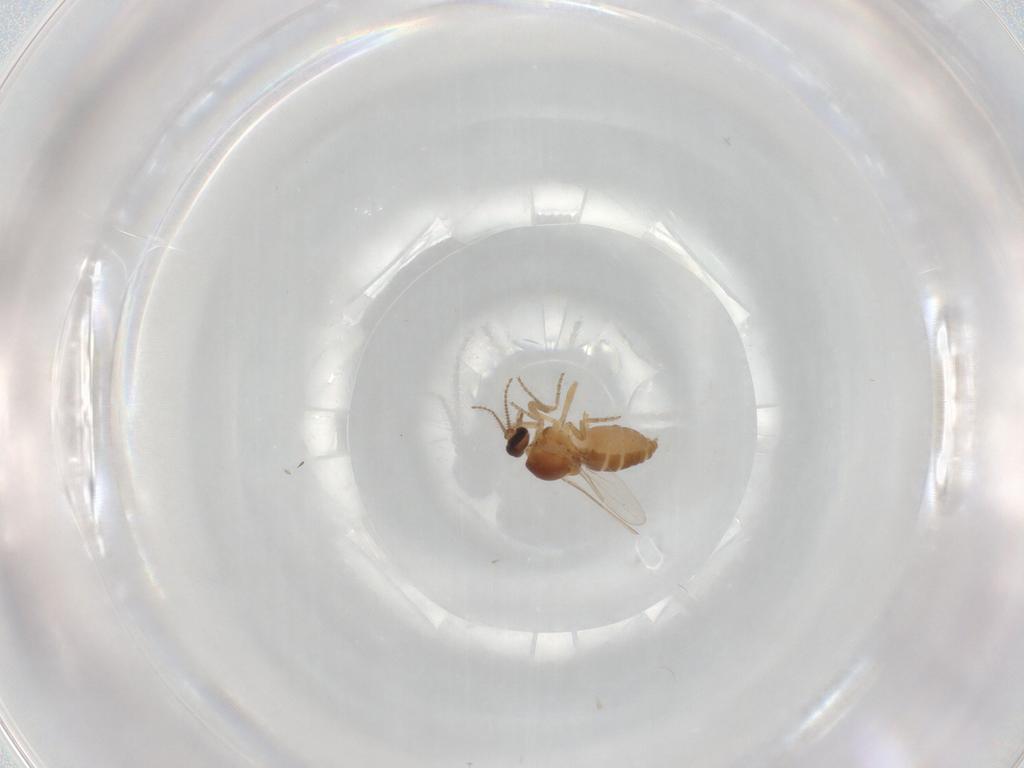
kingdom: Animalia
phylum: Arthropoda
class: Insecta
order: Diptera
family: Ceratopogonidae
